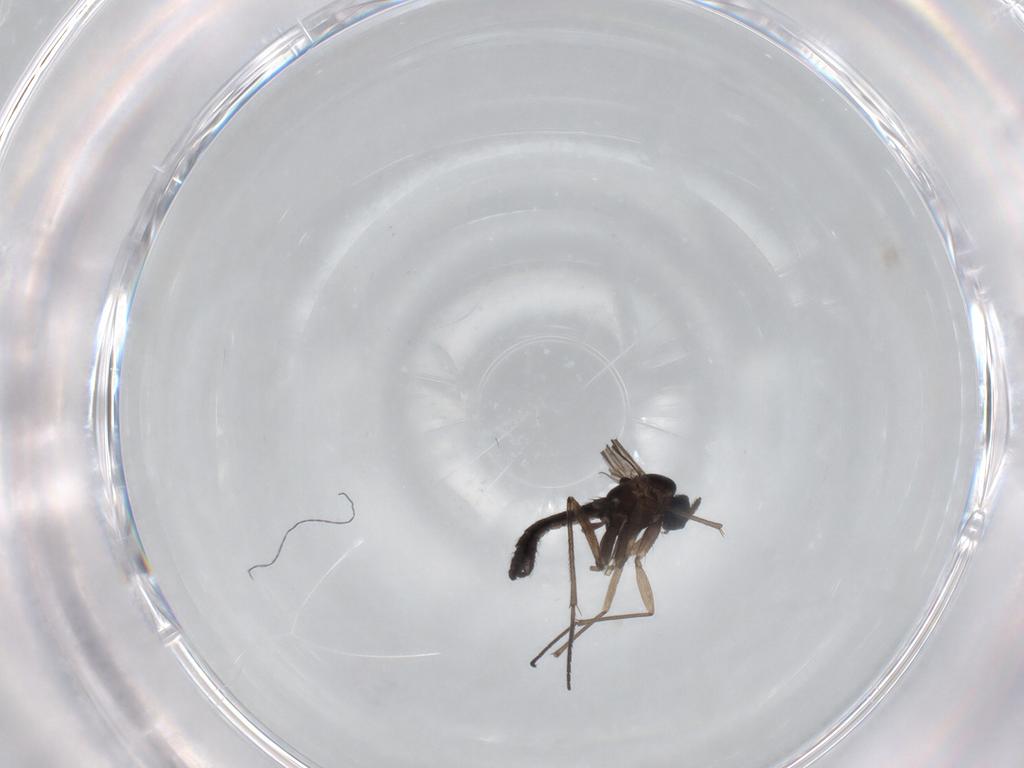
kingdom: Animalia
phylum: Arthropoda
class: Insecta
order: Diptera
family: Sciaridae
